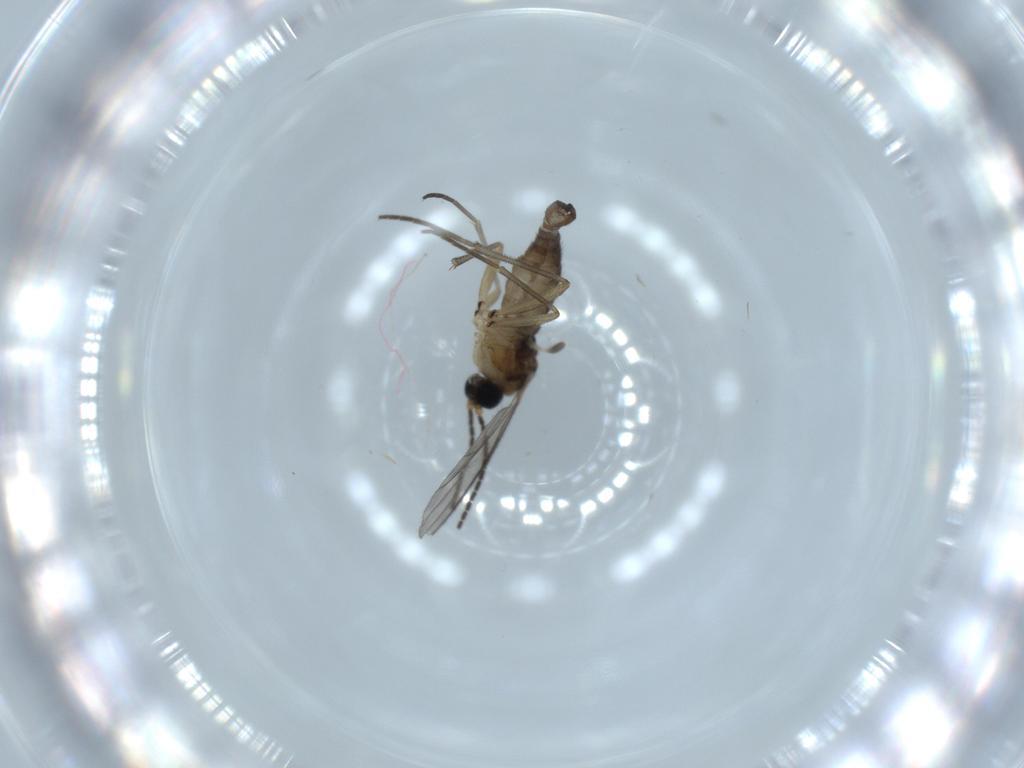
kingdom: Animalia
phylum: Arthropoda
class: Insecta
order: Diptera
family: Sciaridae
